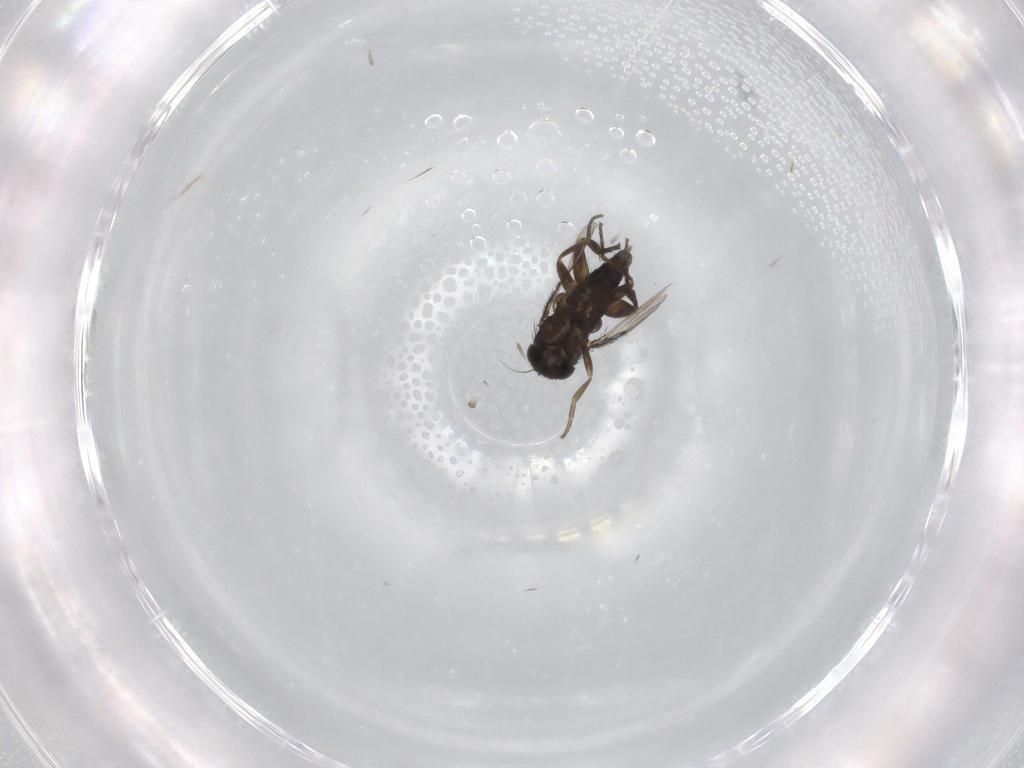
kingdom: Animalia
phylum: Arthropoda
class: Insecta
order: Diptera
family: Phoridae
